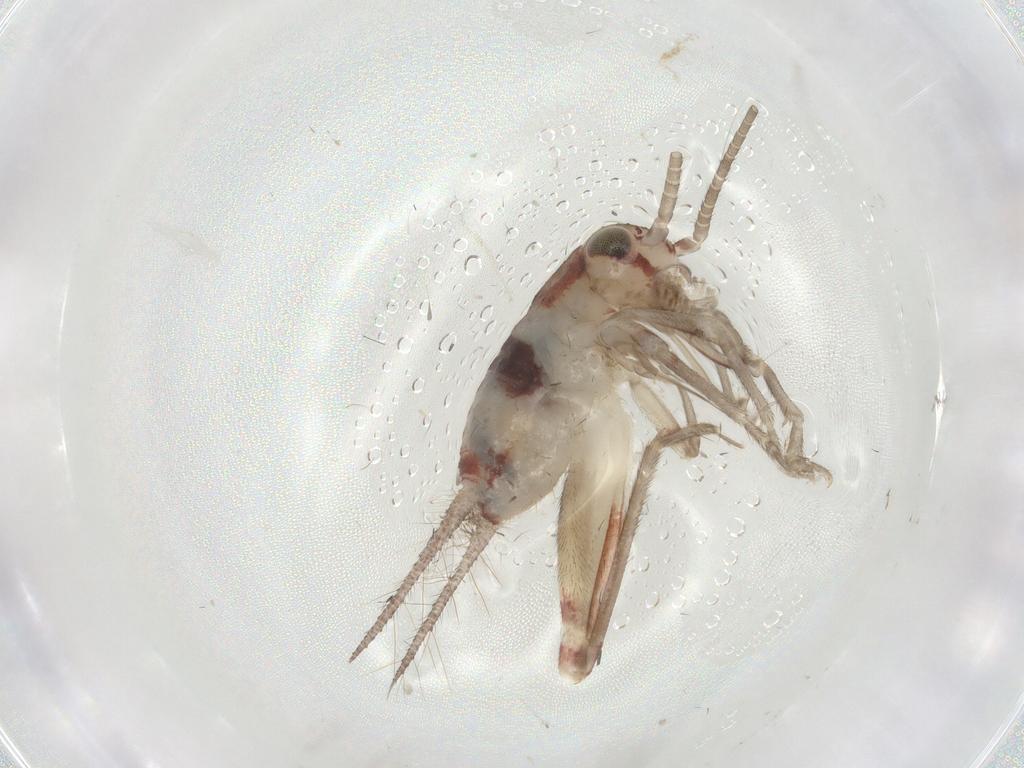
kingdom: Animalia
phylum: Arthropoda
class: Insecta
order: Orthoptera
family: Trigonidiidae
